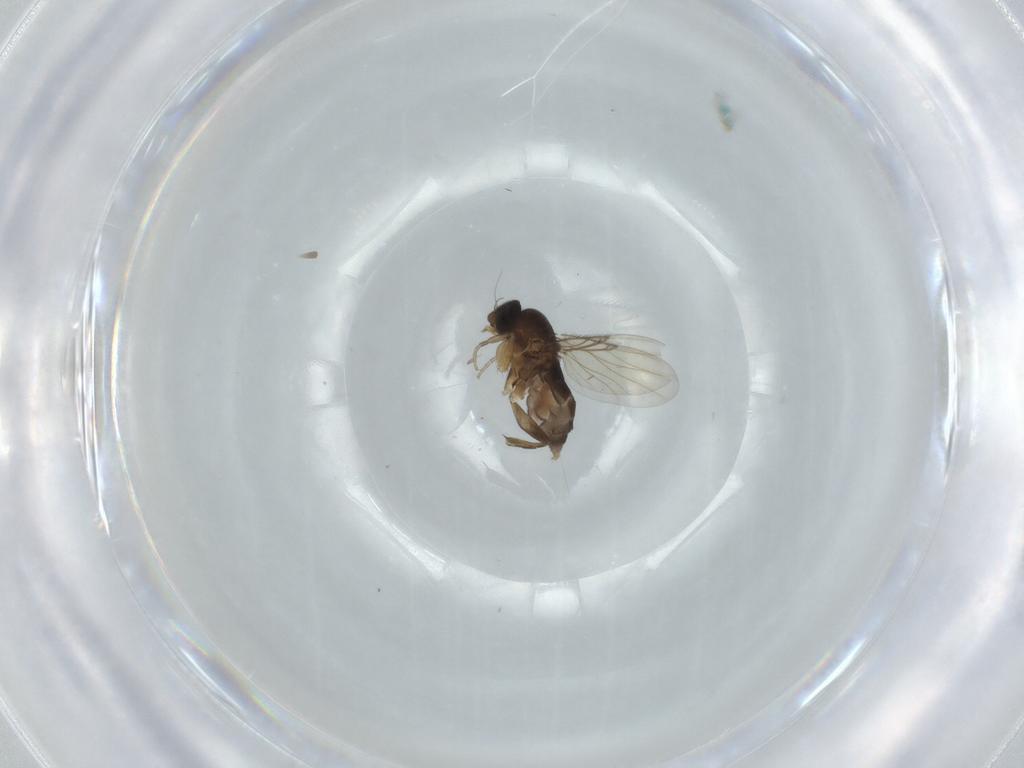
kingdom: Animalia
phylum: Arthropoda
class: Insecta
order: Diptera
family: Phoridae
